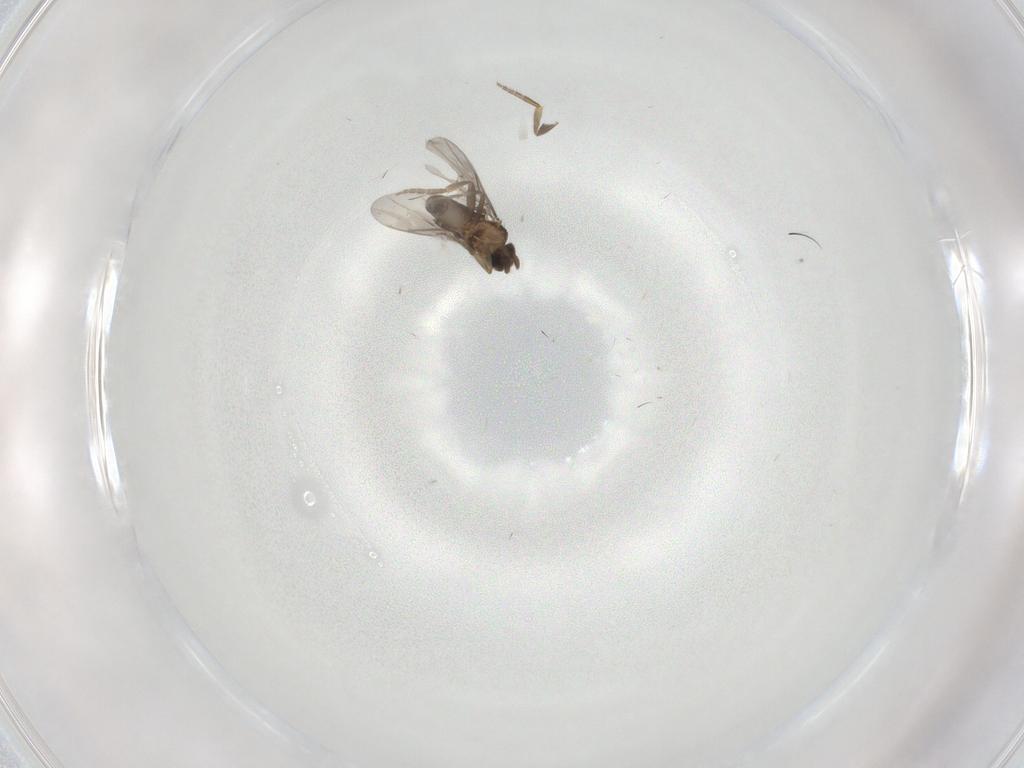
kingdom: Animalia
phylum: Arthropoda
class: Insecta
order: Diptera
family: Ceratopogonidae
